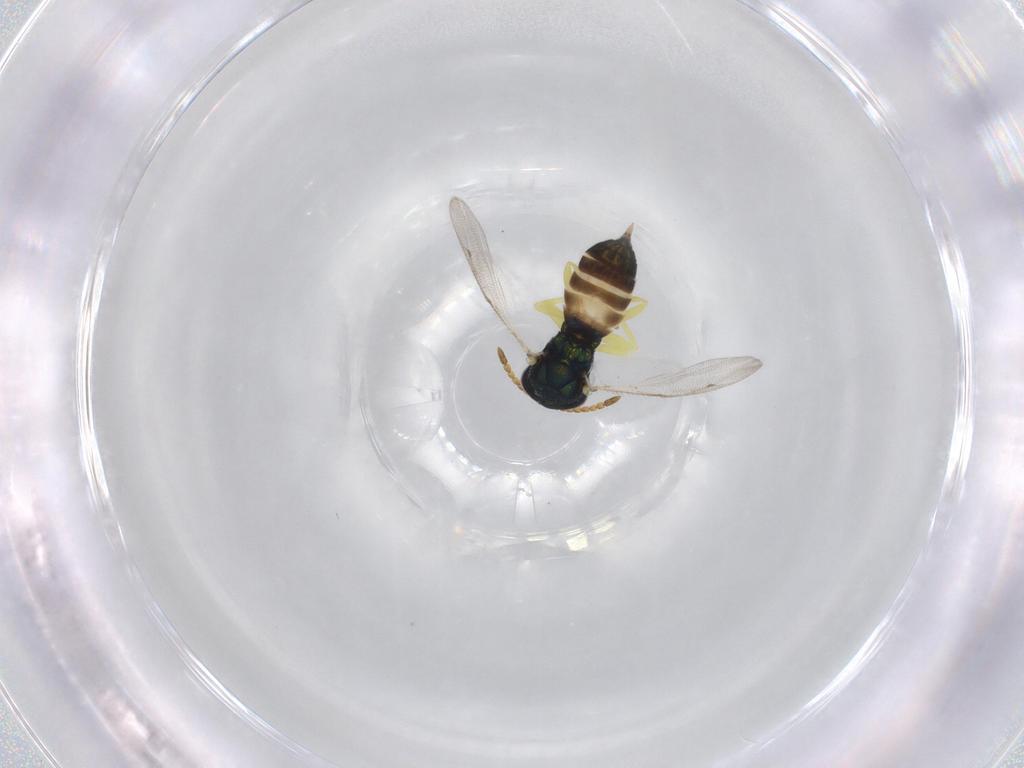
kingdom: Animalia
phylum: Arthropoda
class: Insecta
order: Hymenoptera
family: Pteromalidae
